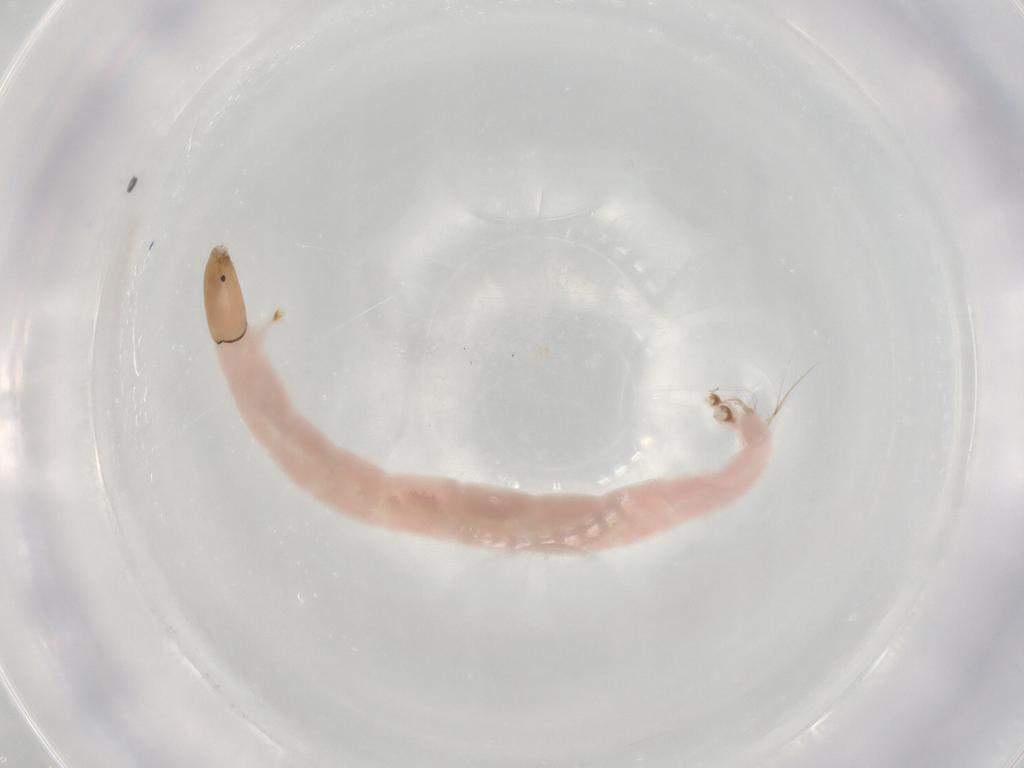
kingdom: Animalia
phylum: Arthropoda
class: Insecta
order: Diptera
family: Chironomidae
